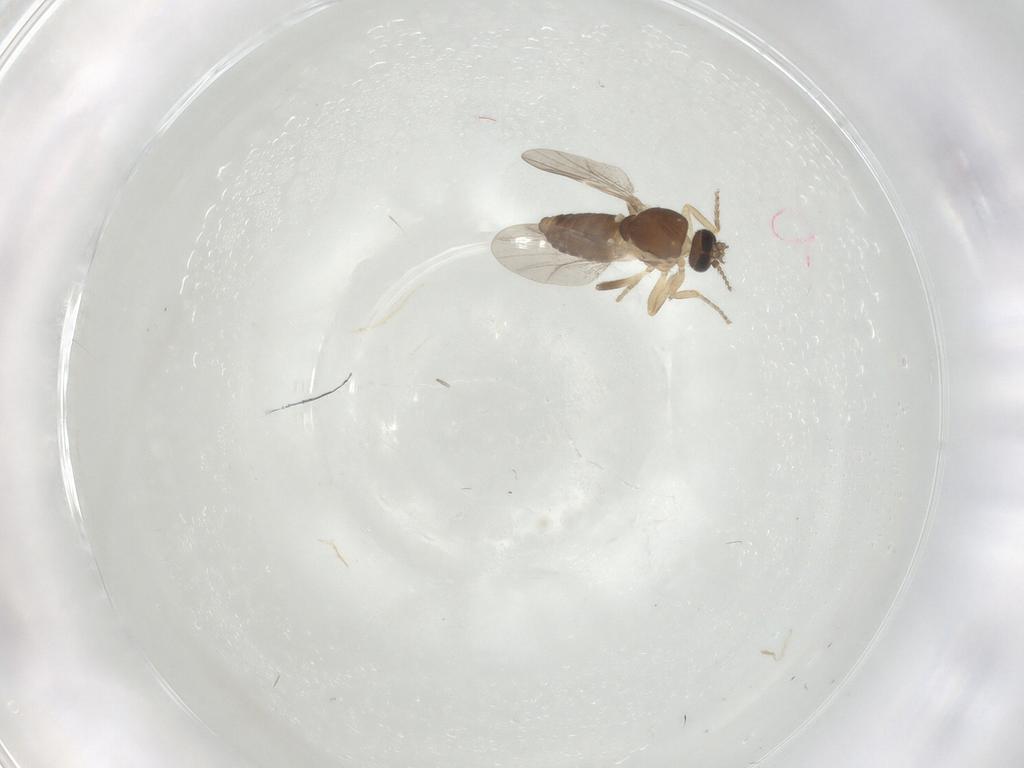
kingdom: Animalia
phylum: Arthropoda
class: Insecta
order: Diptera
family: Ceratopogonidae
